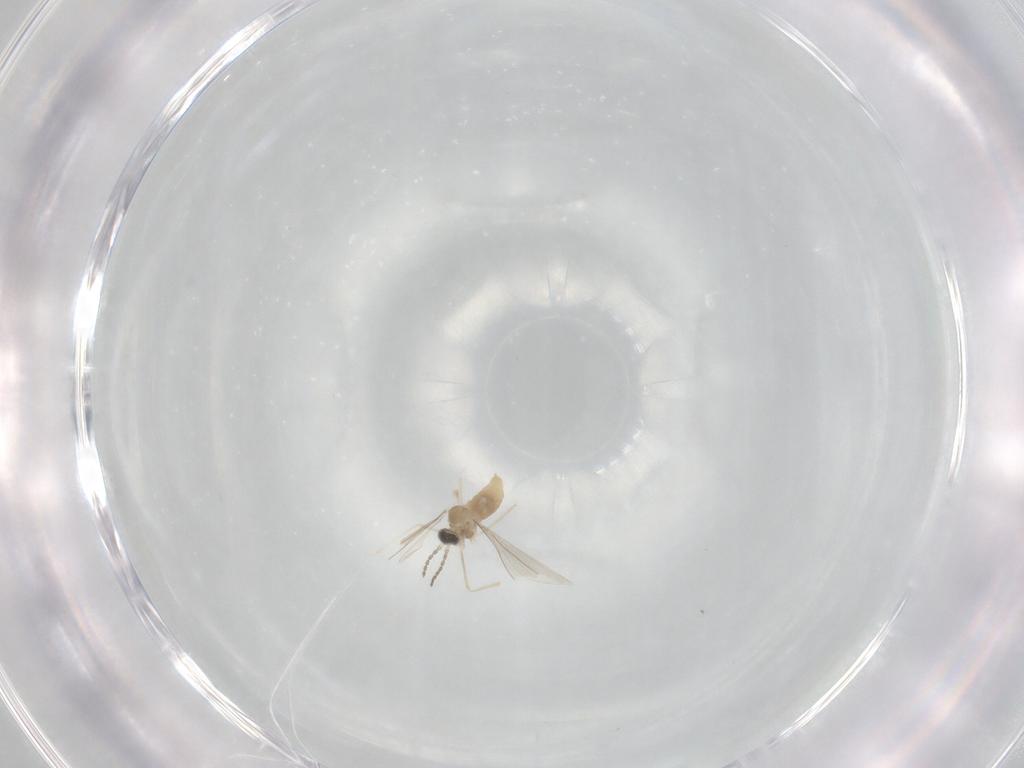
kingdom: Animalia
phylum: Arthropoda
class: Insecta
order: Diptera
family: Cecidomyiidae
